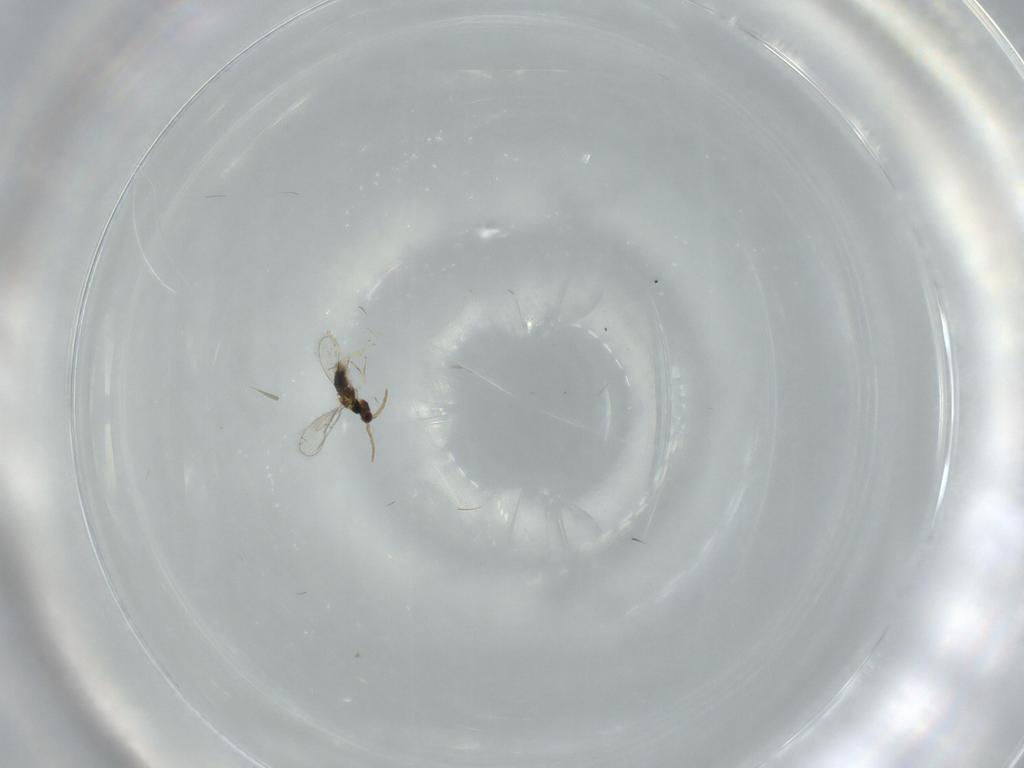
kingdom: Animalia
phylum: Arthropoda
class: Insecta
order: Hymenoptera
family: Aphelinidae
